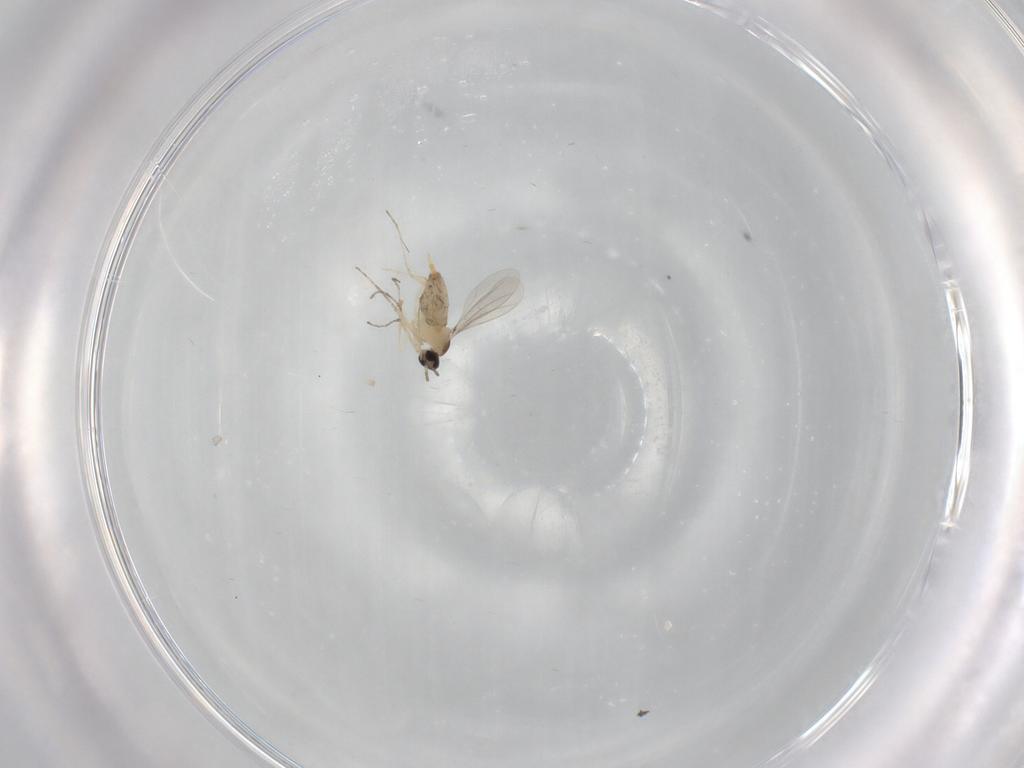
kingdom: Animalia
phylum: Arthropoda
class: Insecta
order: Diptera
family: Cecidomyiidae
